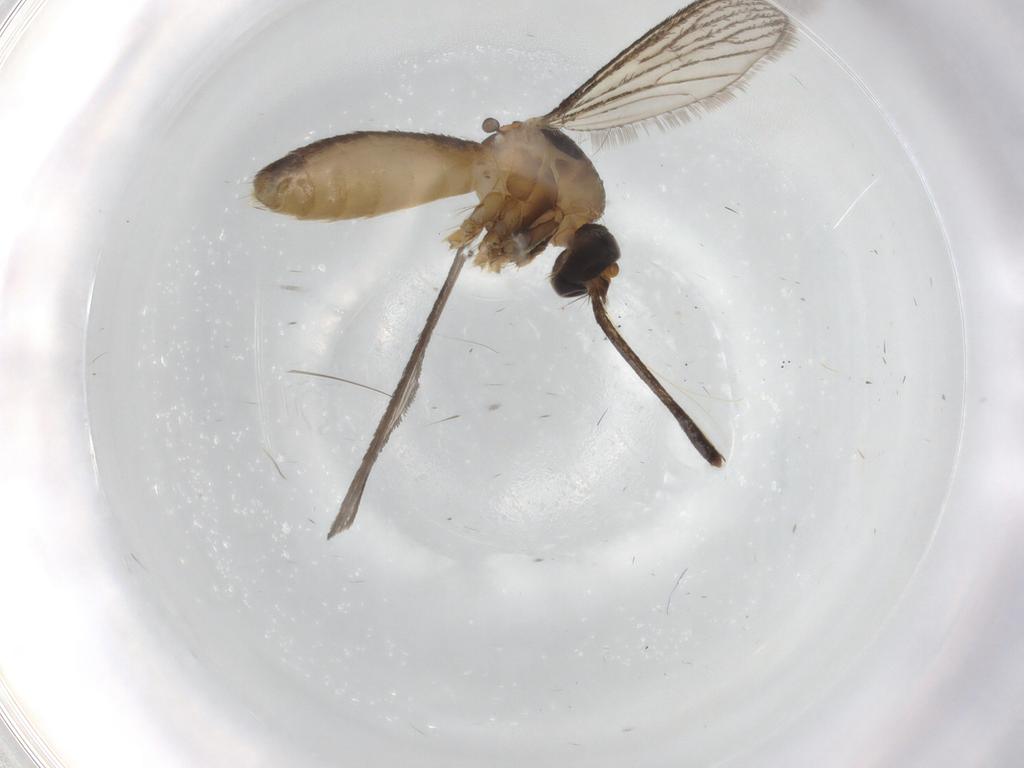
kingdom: Animalia
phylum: Arthropoda
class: Insecta
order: Diptera
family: Culicidae
